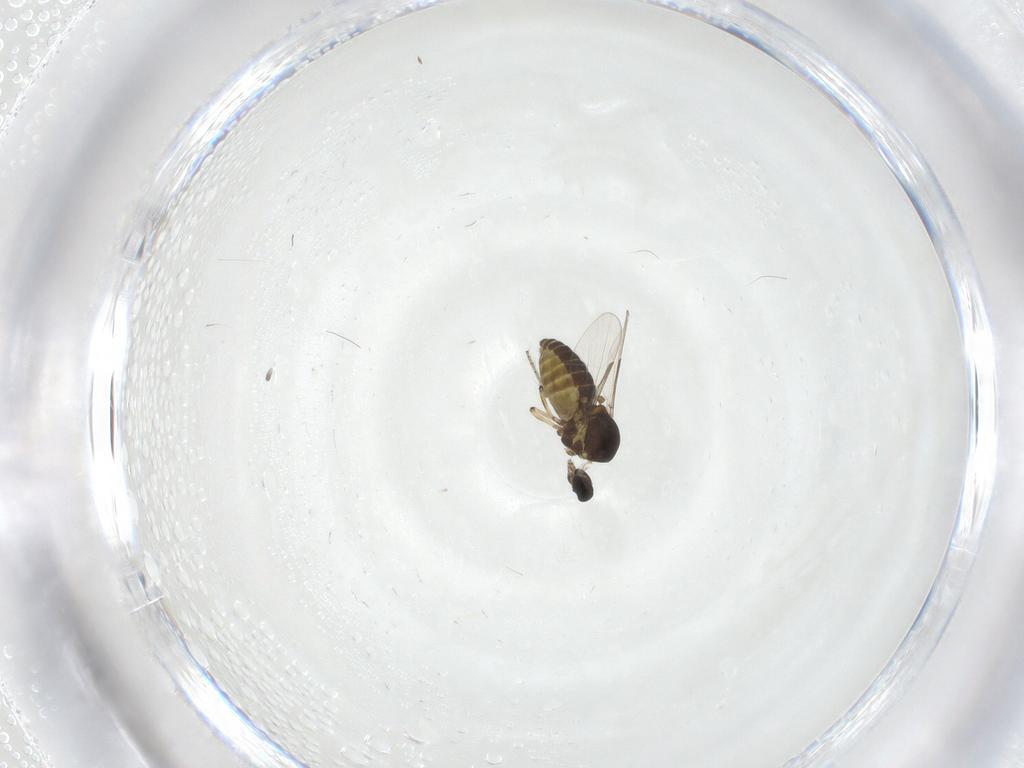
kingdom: Animalia
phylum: Arthropoda
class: Insecta
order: Diptera
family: Ceratopogonidae
